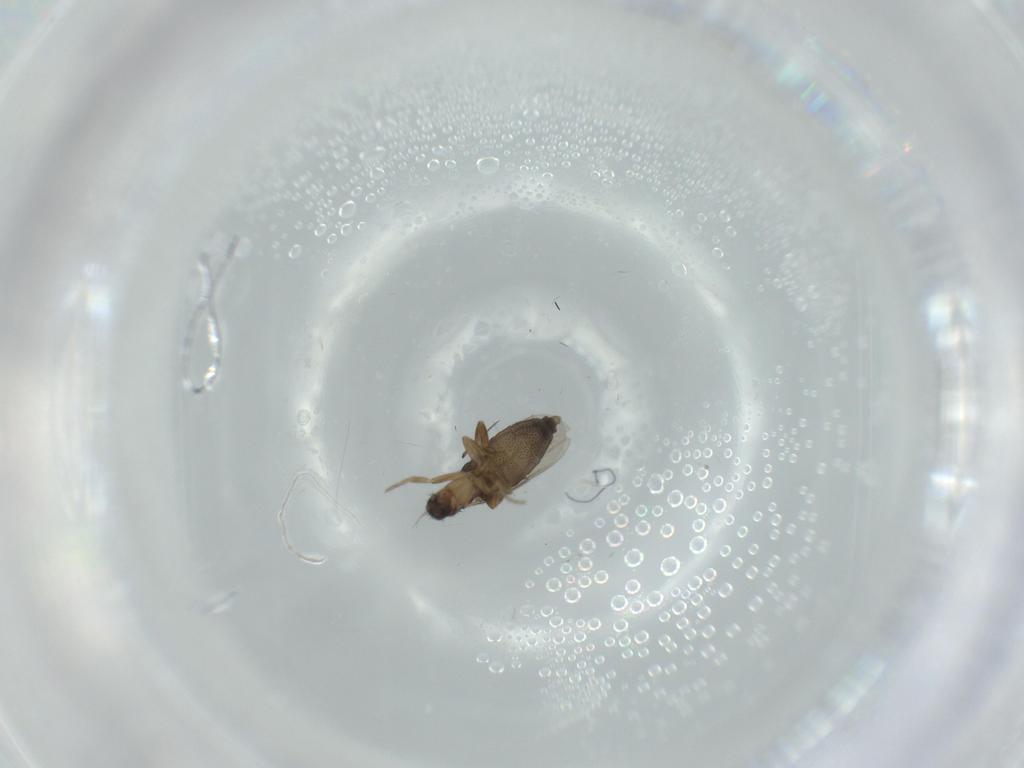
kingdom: Animalia
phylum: Arthropoda
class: Insecta
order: Diptera
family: Phoridae
